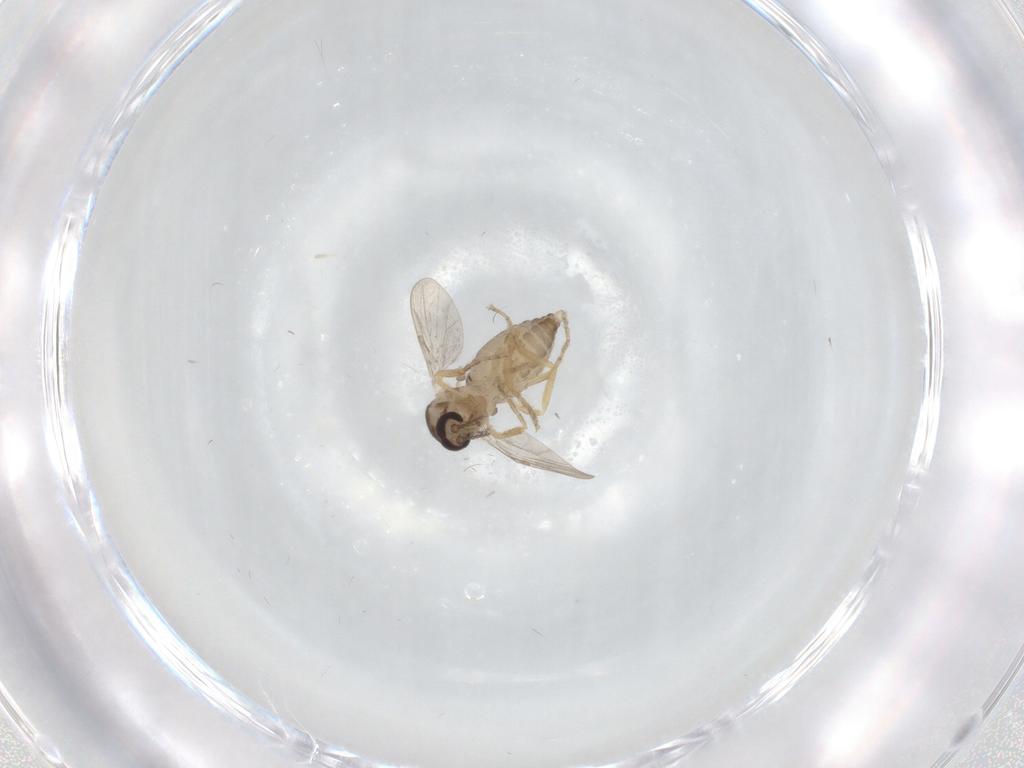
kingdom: Animalia
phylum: Arthropoda
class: Insecta
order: Diptera
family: Ceratopogonidae
